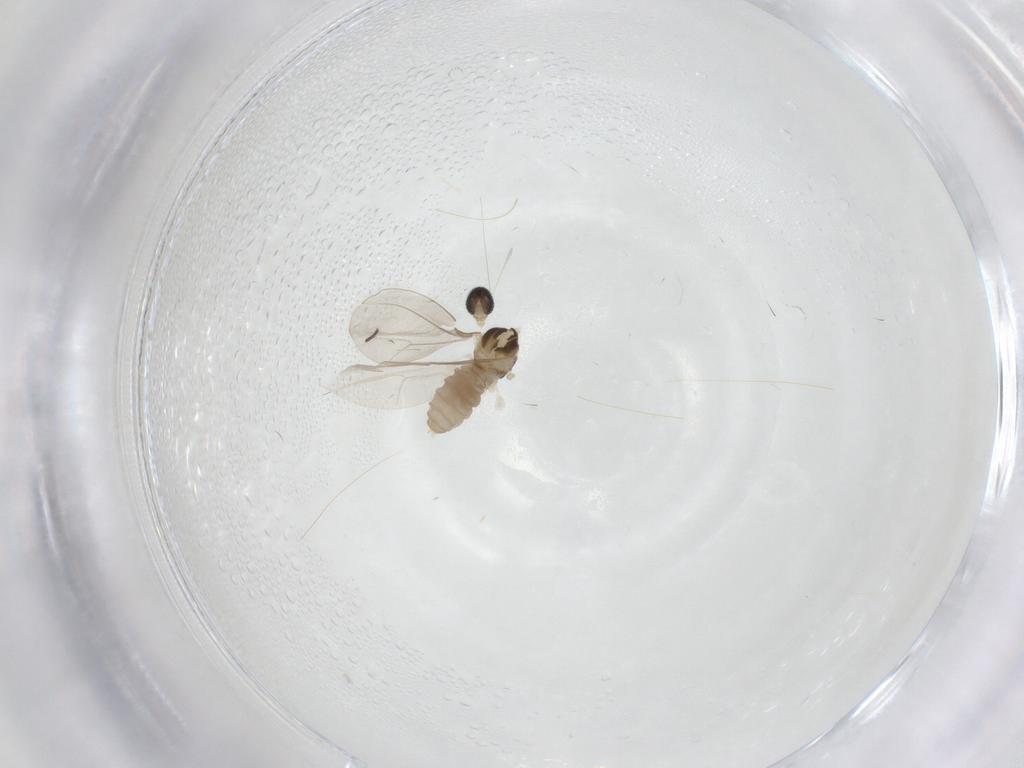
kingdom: Animalia
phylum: Arthropoda
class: Insecta
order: Diptera
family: Cecidomyiidae
